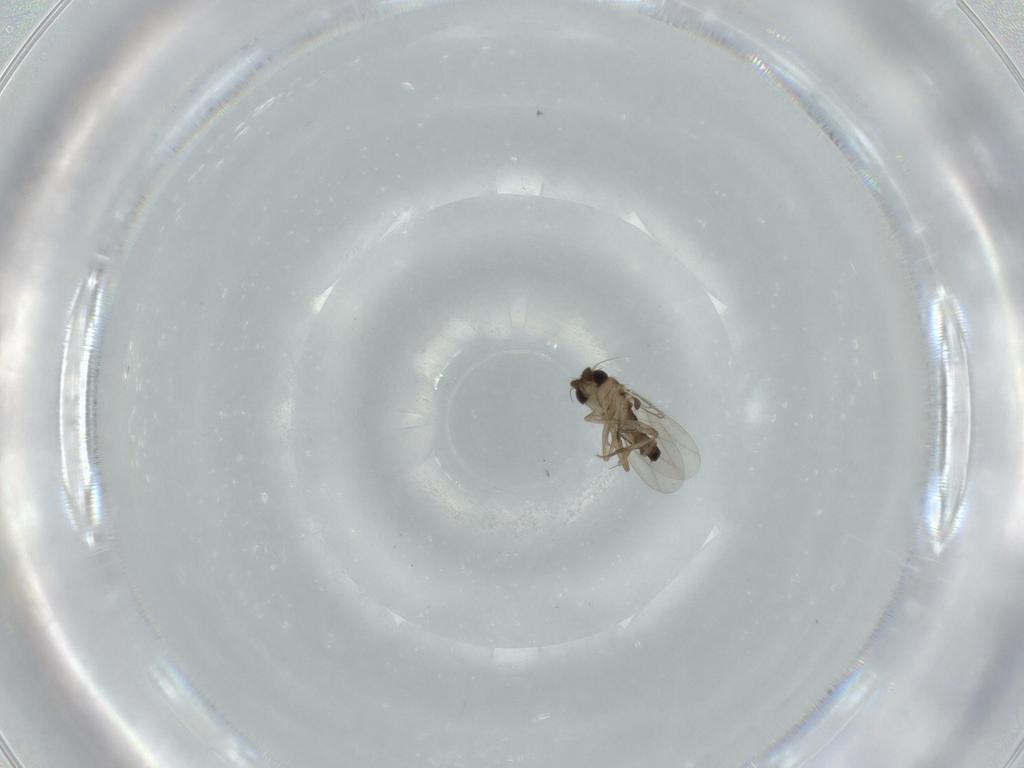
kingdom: Animalia
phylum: Arthropoda
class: Insecta
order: Diptera
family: Phoridae
